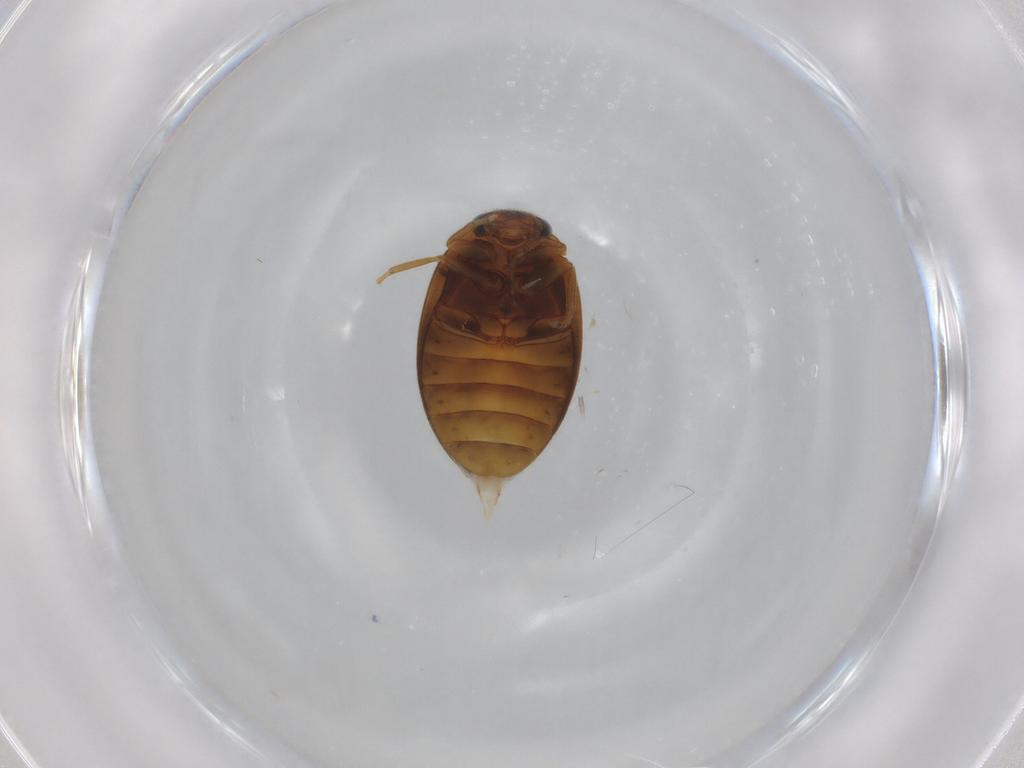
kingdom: Animalia
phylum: Arthropoda
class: Insecta
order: Coleoptera
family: Scirtidae
